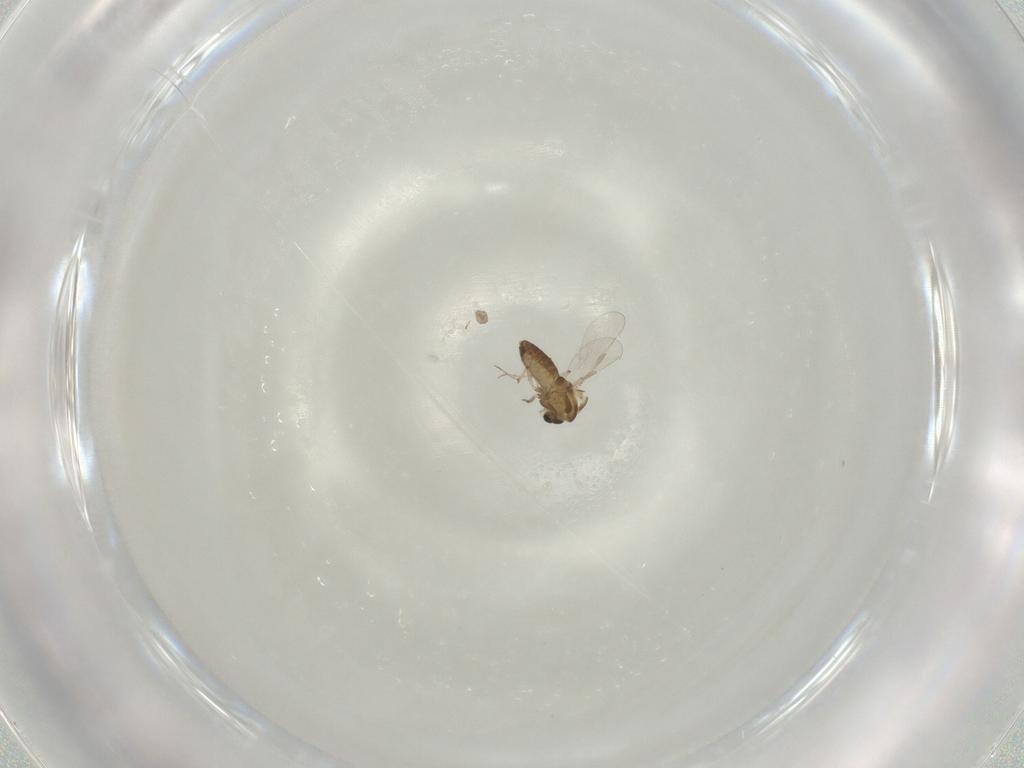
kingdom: Animalia
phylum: Arthropoda
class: Insecta
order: Diptera
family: Chironomidae
